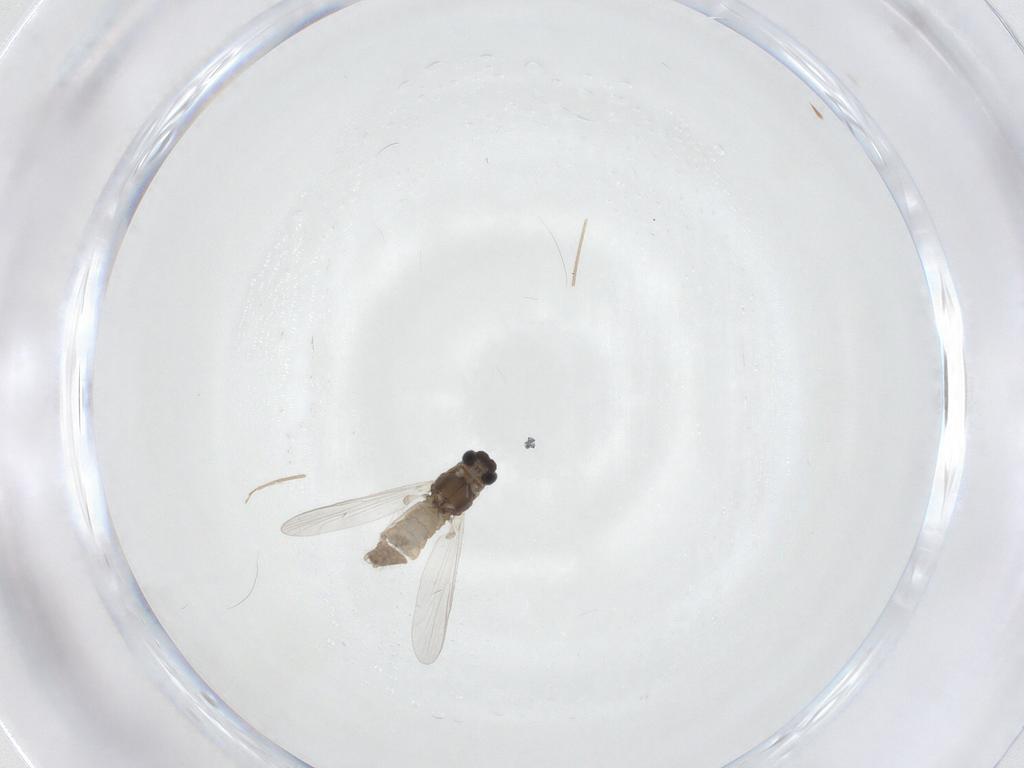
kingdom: Animalia
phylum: Arthropoda
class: Insecta
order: Diptera
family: Chironomidae
